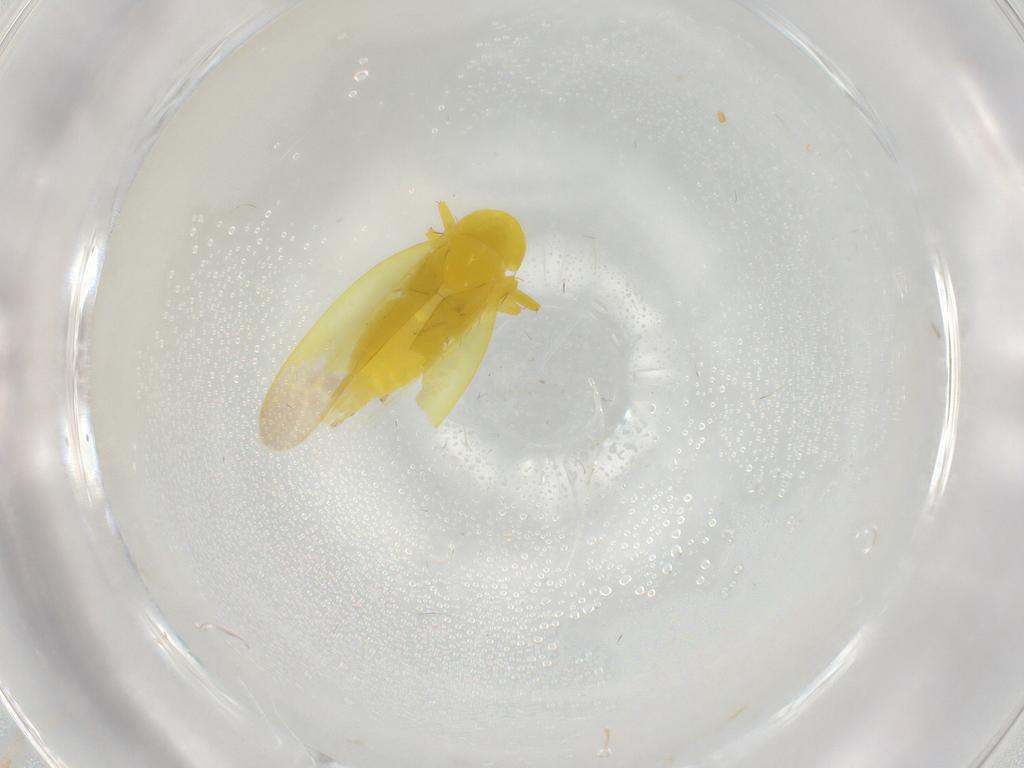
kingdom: Animalia
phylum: Arthropoda
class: Insecta
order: Hemiptera
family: Cicadellidae
